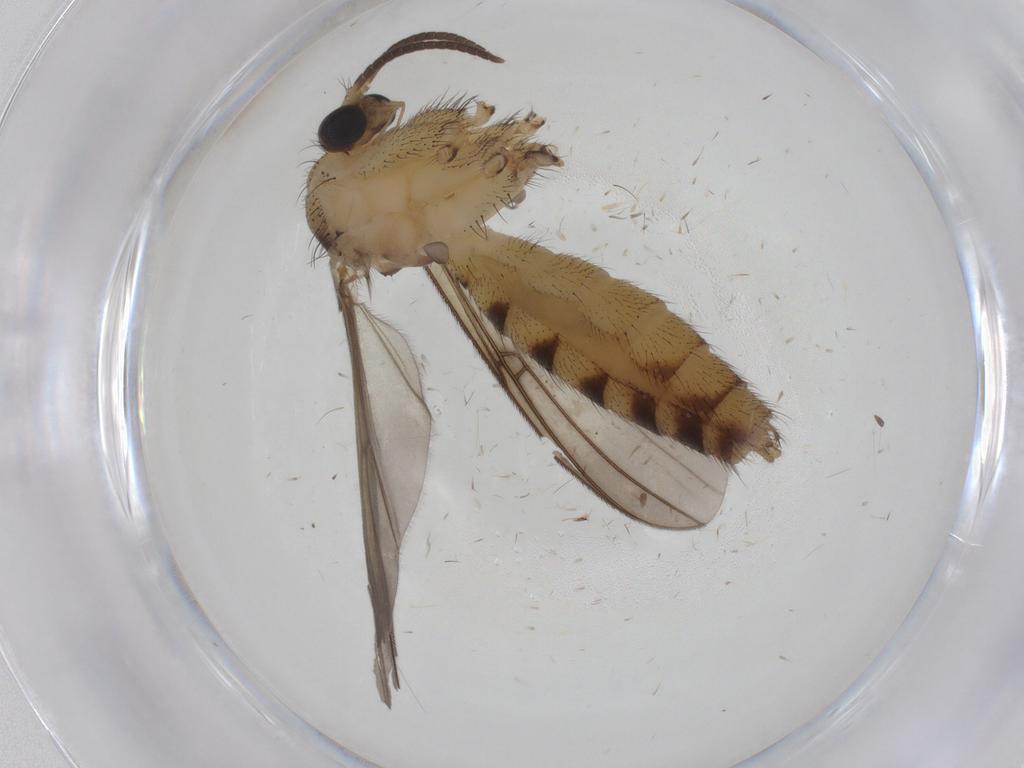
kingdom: Animalia
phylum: Arthropoda
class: Insecta
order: Diptera
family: Mycetophilidae
